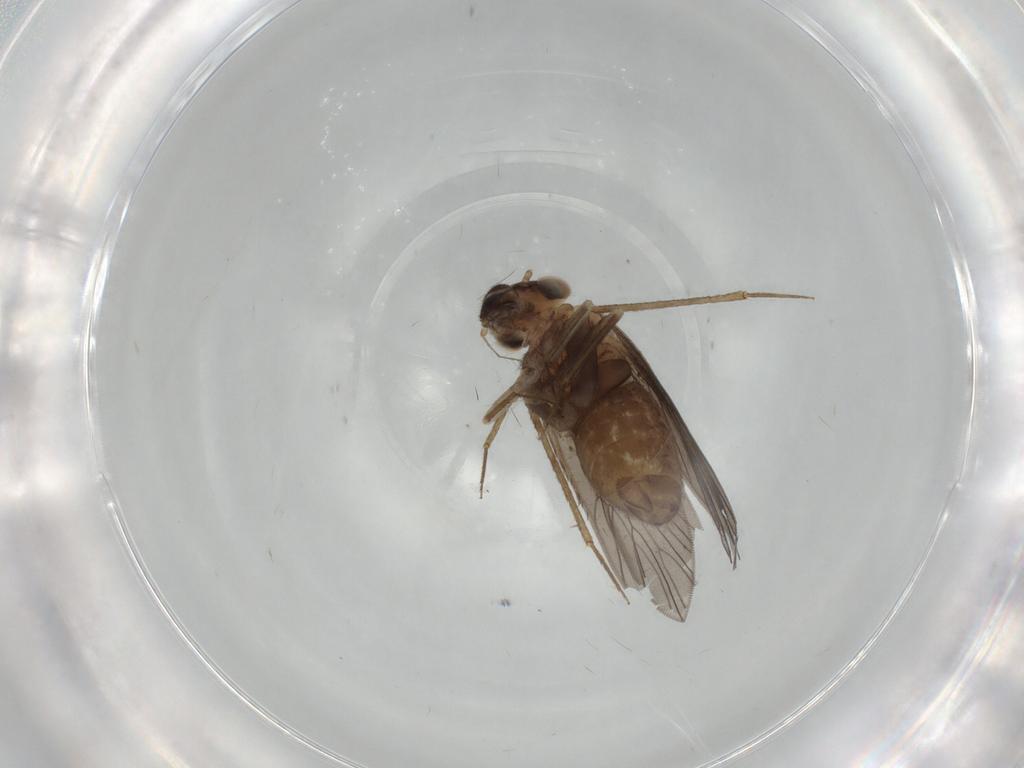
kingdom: Animalia
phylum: Arthropoda
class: Insecta
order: Psocodea
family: Lepidopsocidae
